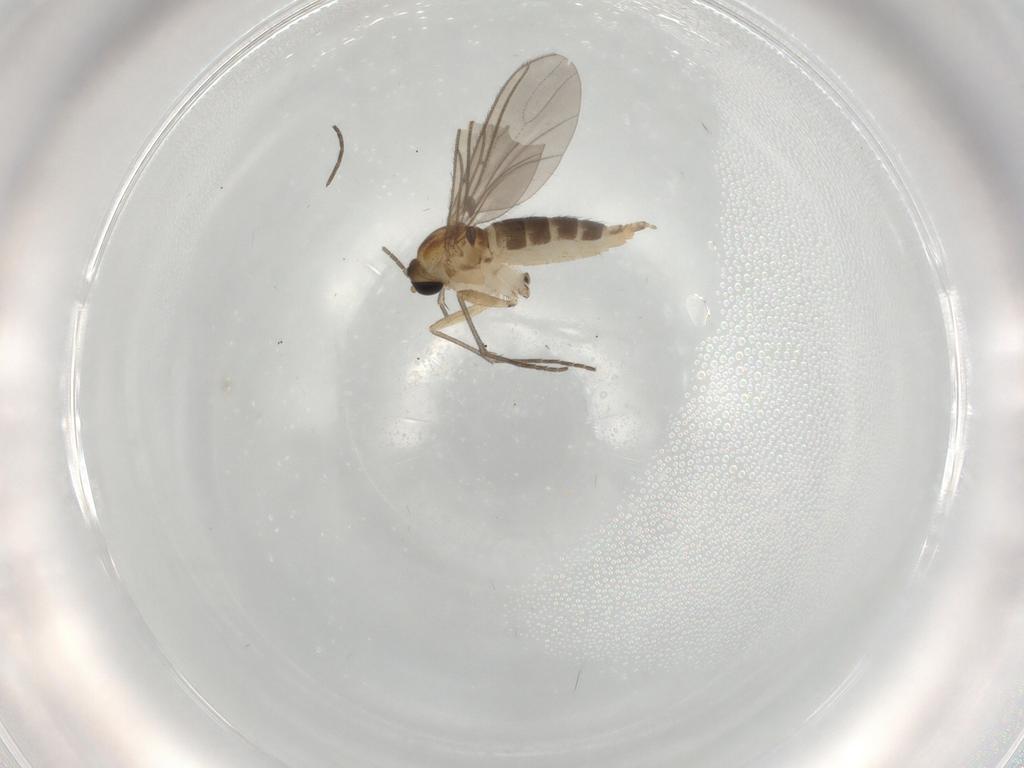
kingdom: Animalia
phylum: Arthropoda
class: Insecta
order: Diptera
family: Sciaridae
